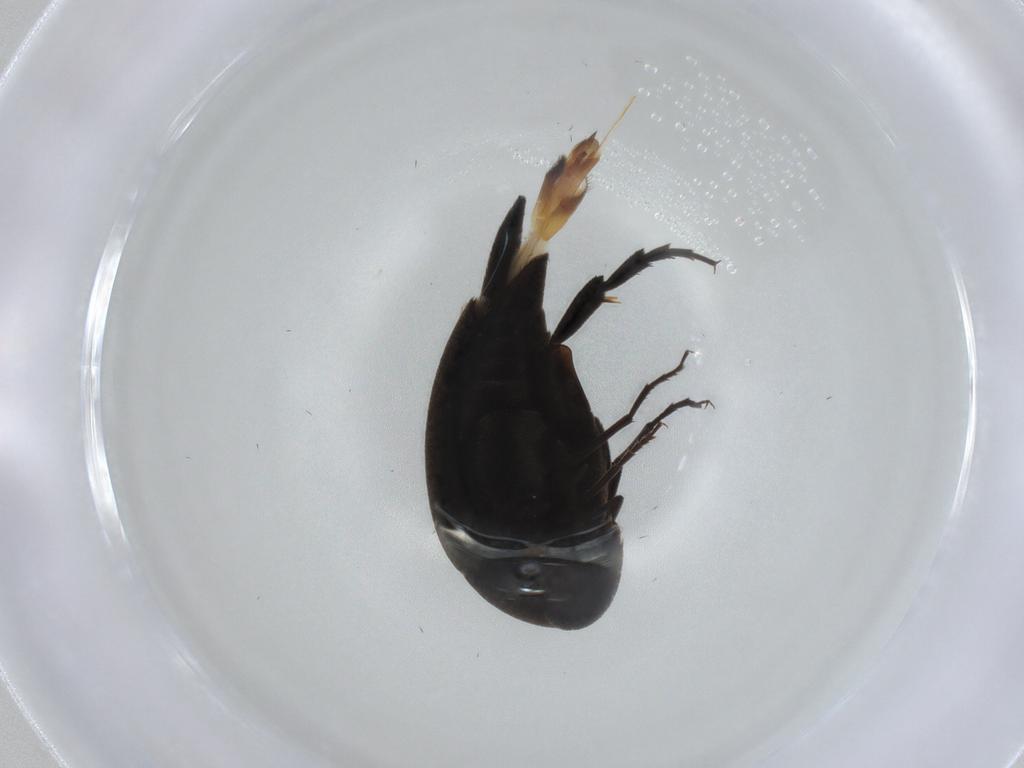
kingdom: Animalia
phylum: Arthropoda
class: Insecta
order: Coleoptera
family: Mordellidae
